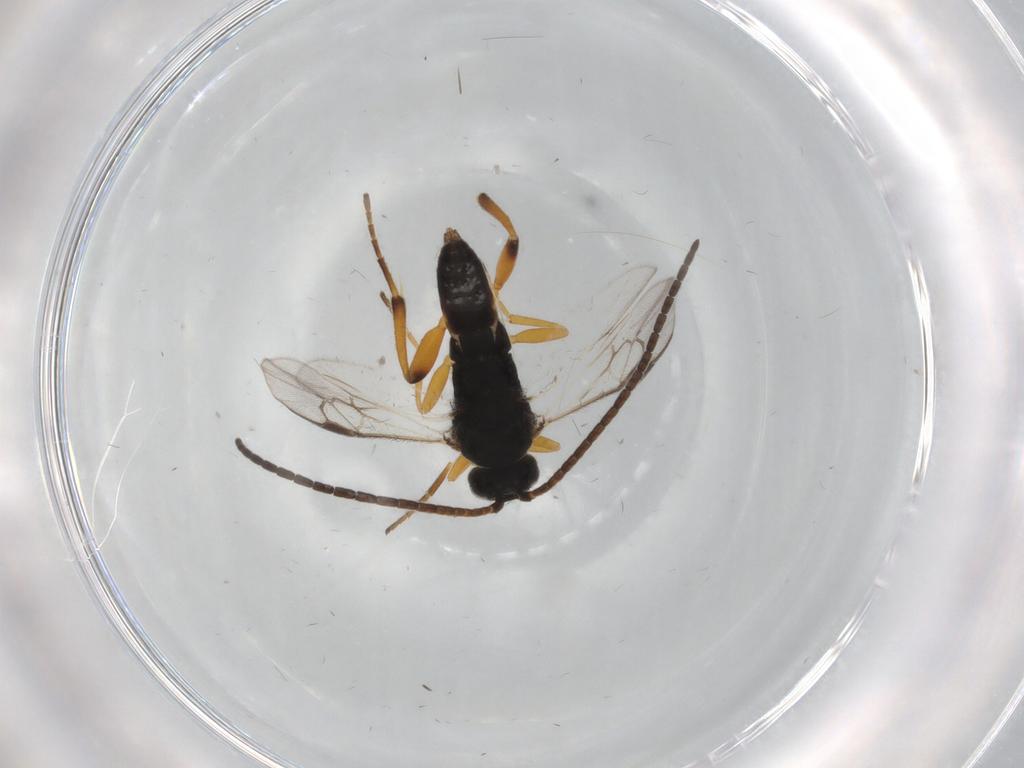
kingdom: Animalia
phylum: Arthropoda
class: Insecta
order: Hymenoptera
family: Braconidae
